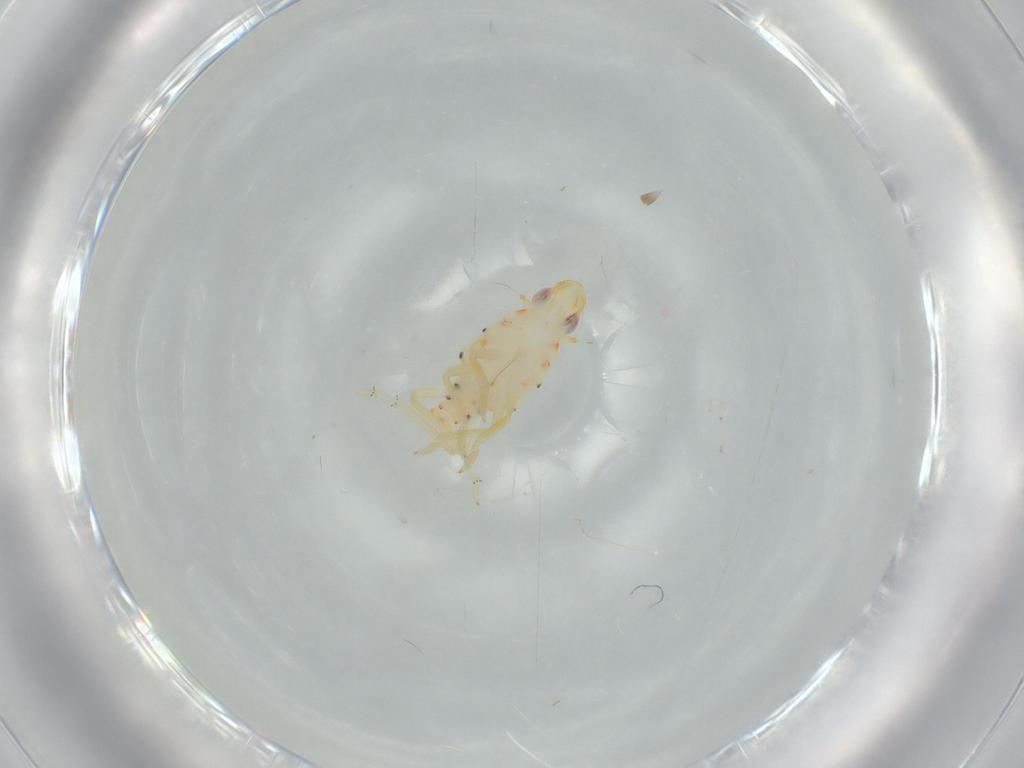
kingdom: Animalia
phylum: Arthropoda
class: Insecta
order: Hemiptera
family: Tropiduchidae
